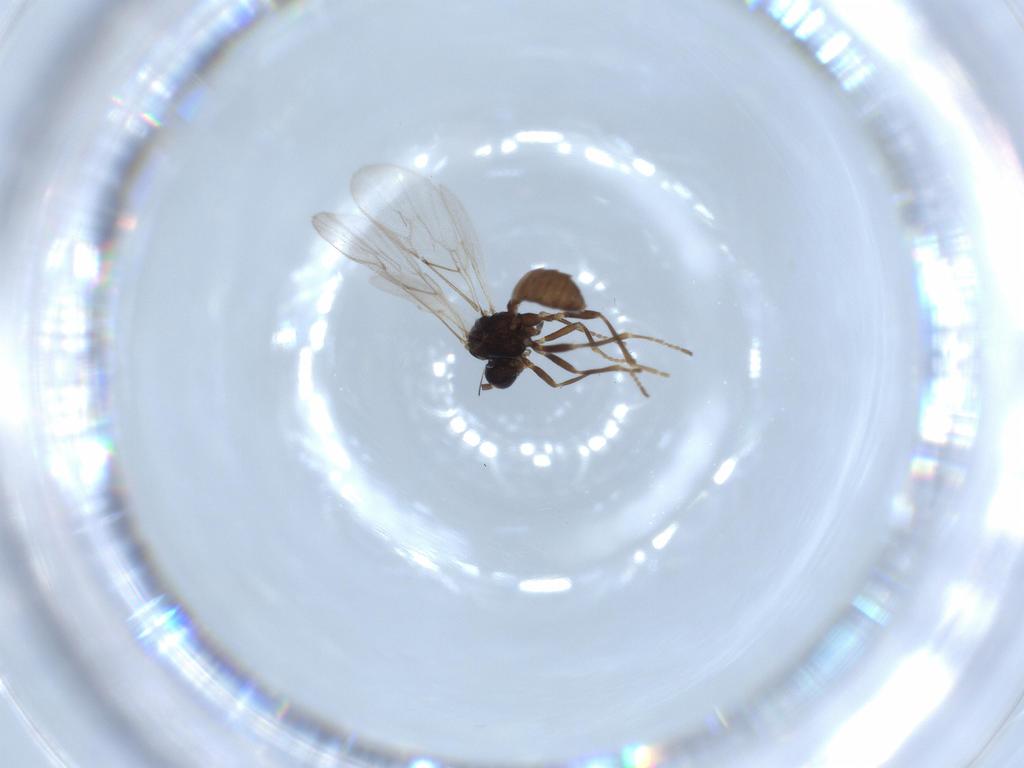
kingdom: Animalia
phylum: Arthropoda
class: Insecta
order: Hymenoptera
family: Braconidae
